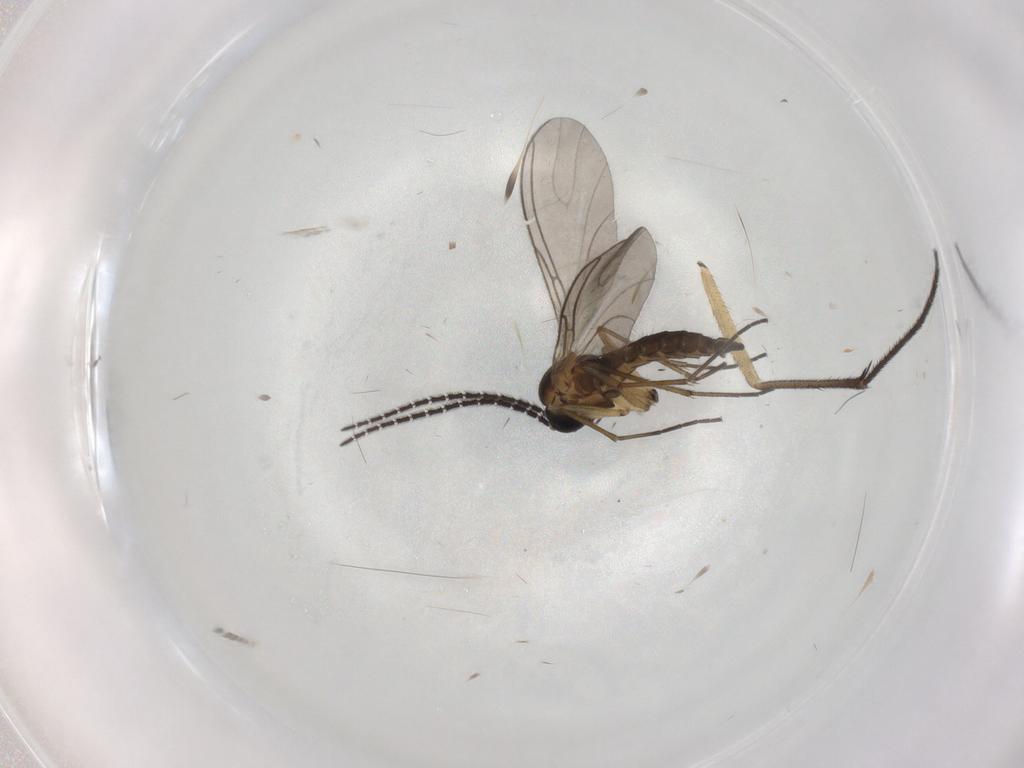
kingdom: Animalia
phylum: Arthropoda
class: Insecta
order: Diptera
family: Sciaridae
